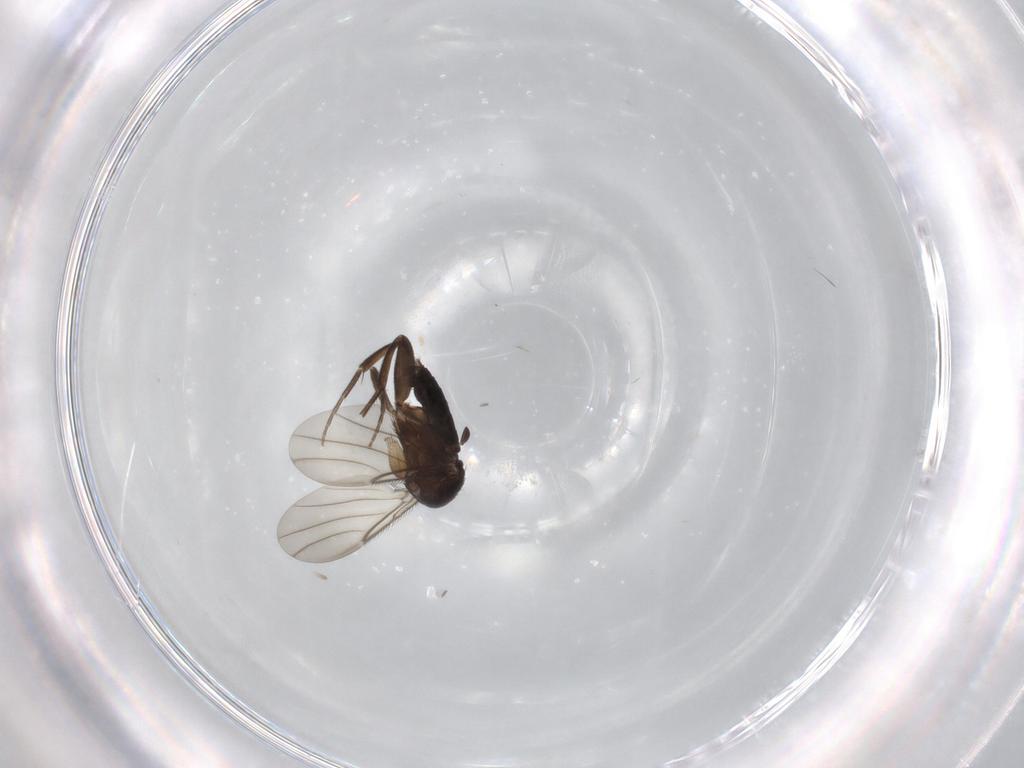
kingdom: Animalia
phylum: Arthropoda
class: Insecta
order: Diptera
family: Phoridae
